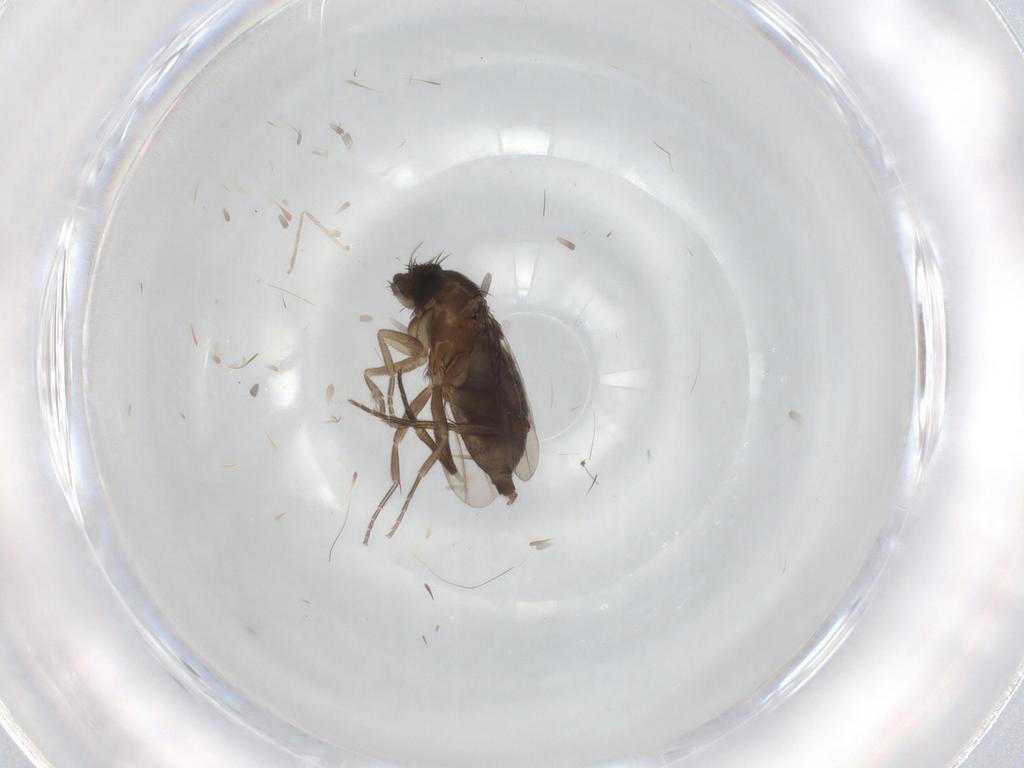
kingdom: Animalia
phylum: Arthropoda
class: Insecta
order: Diptera
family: Phoridae
